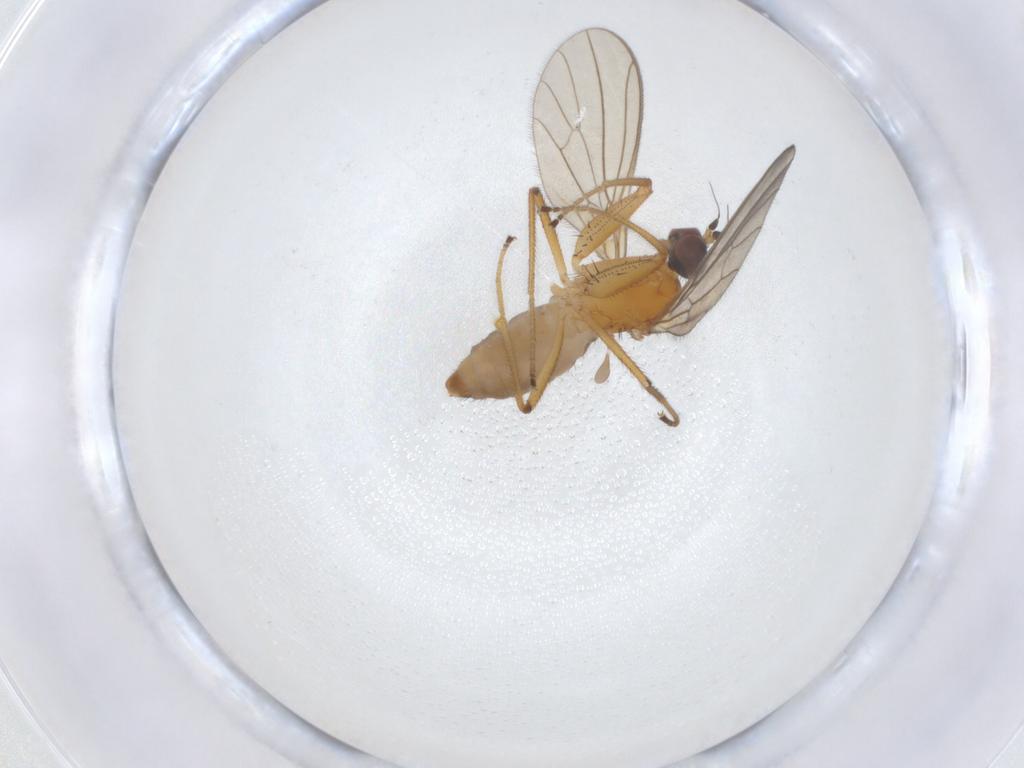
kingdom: Animalia
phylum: Arthropoda
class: Insecta
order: Diptera
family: Empididae
